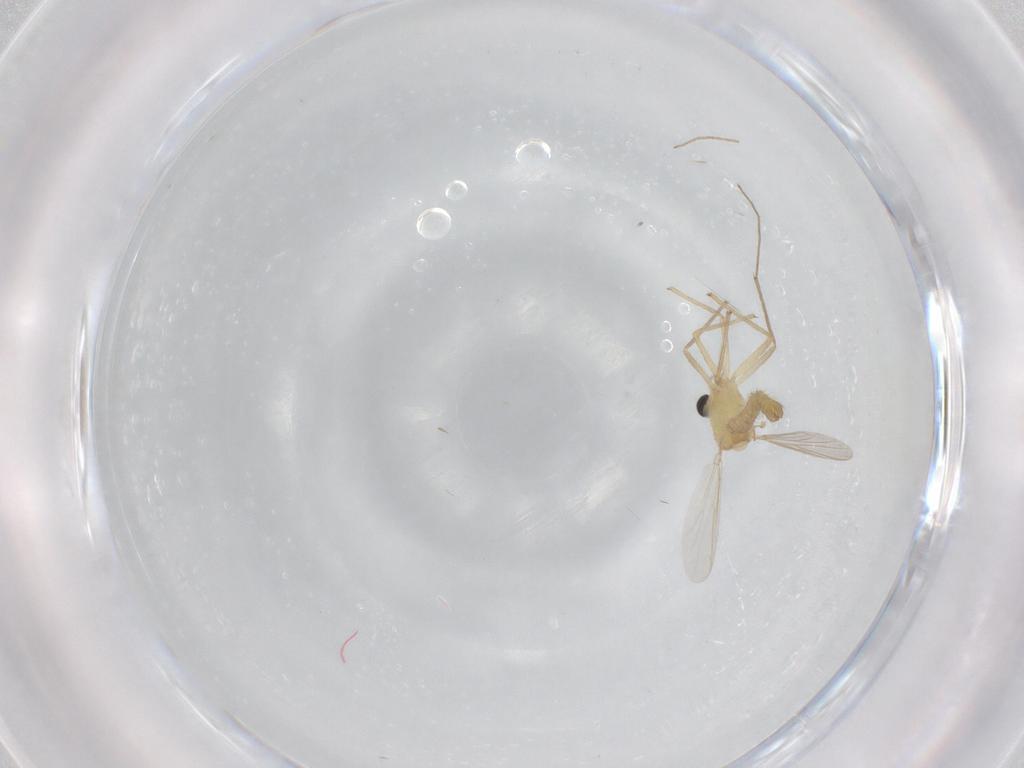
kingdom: Animalia
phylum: Arthropoda
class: Insecta
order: Diptera
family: Chironomidae
